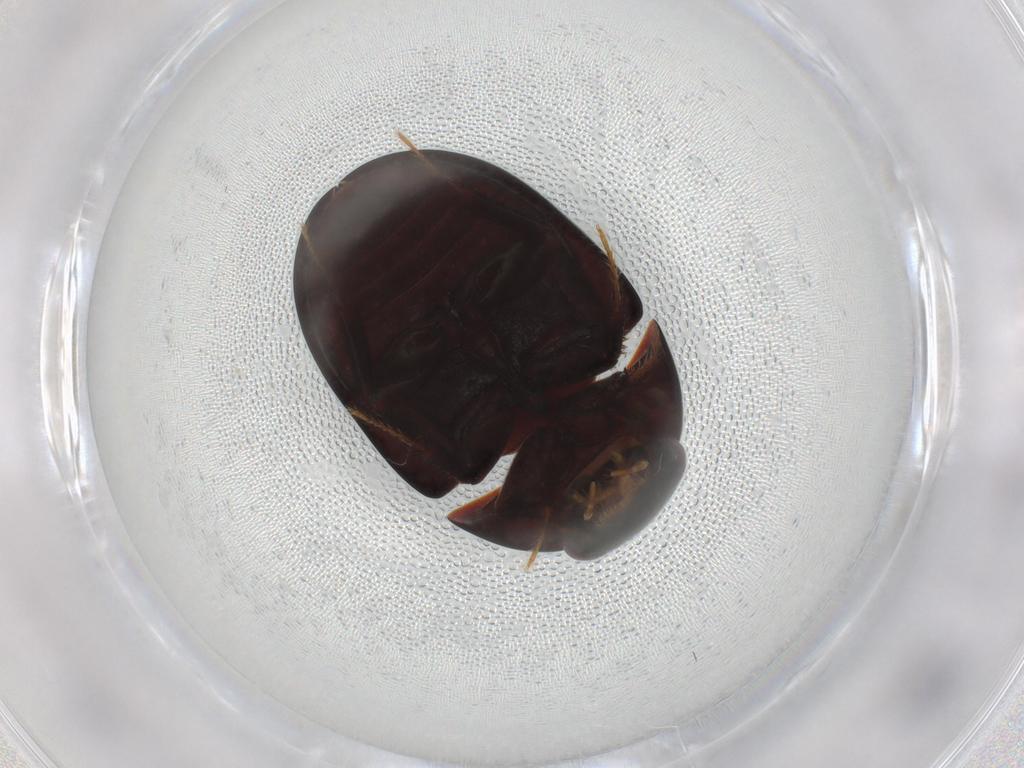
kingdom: Animalia
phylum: Arthropoda
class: Insecta
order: Coleoptera
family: Hydrophilidae
